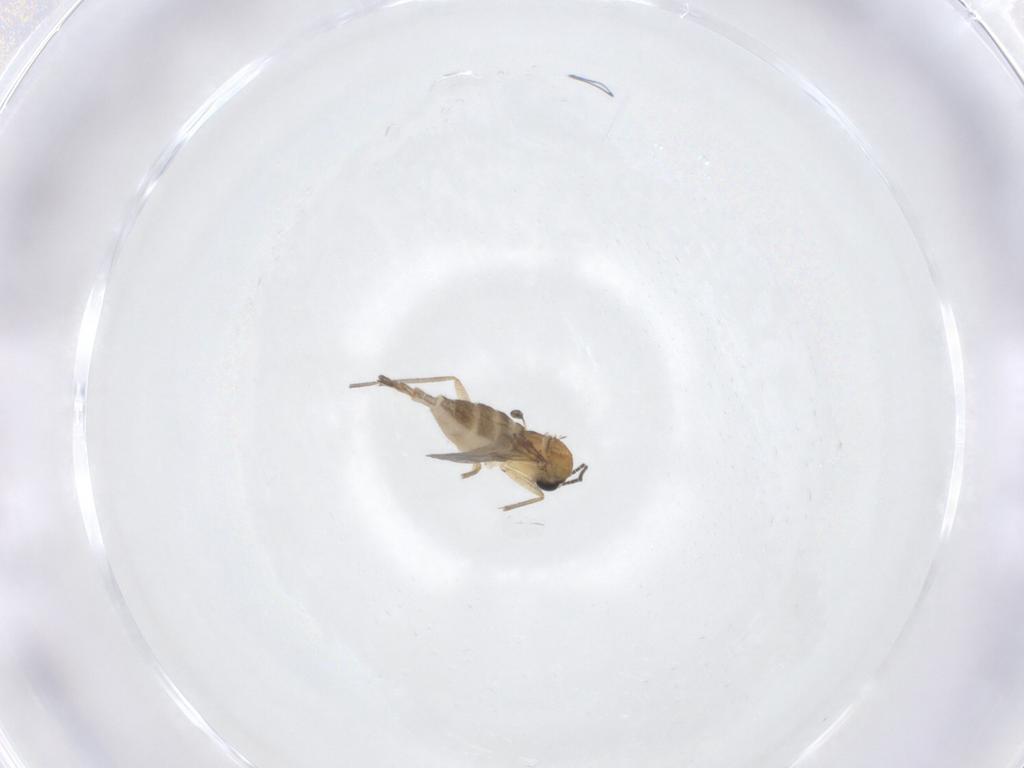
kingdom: Animalia
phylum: Arthropoda
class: Insecta
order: Diptera
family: Sciaridae
